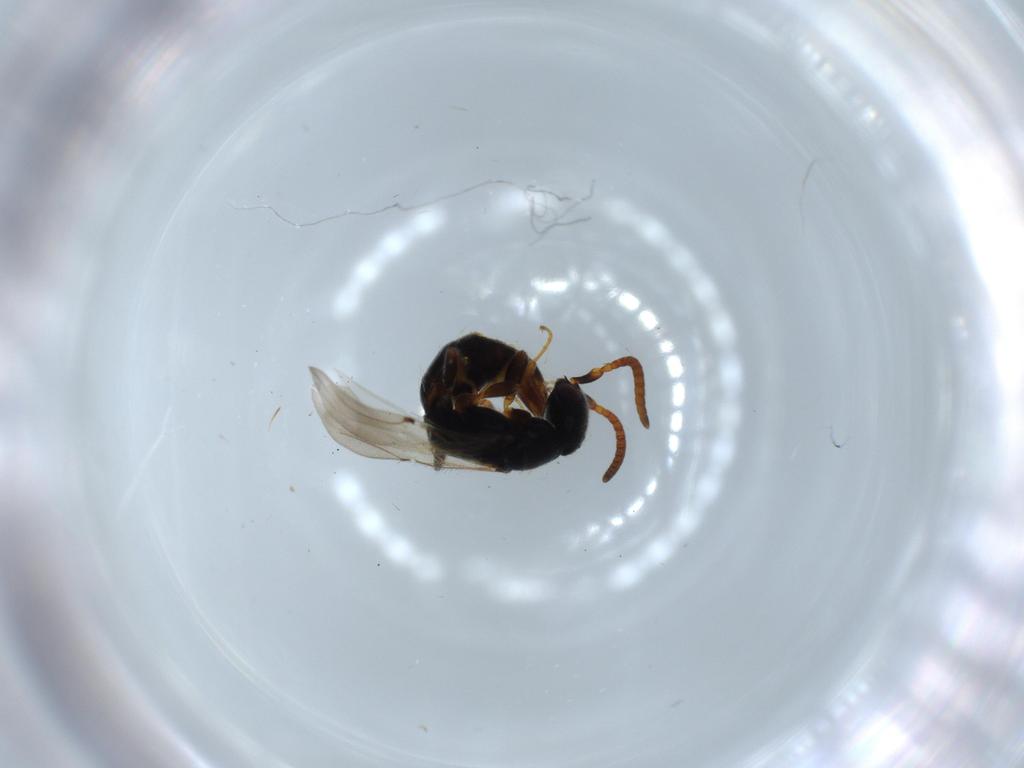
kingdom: Animalia
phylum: Arthropoda
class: Insecta
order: Hymenoptera
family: Bethylidae
